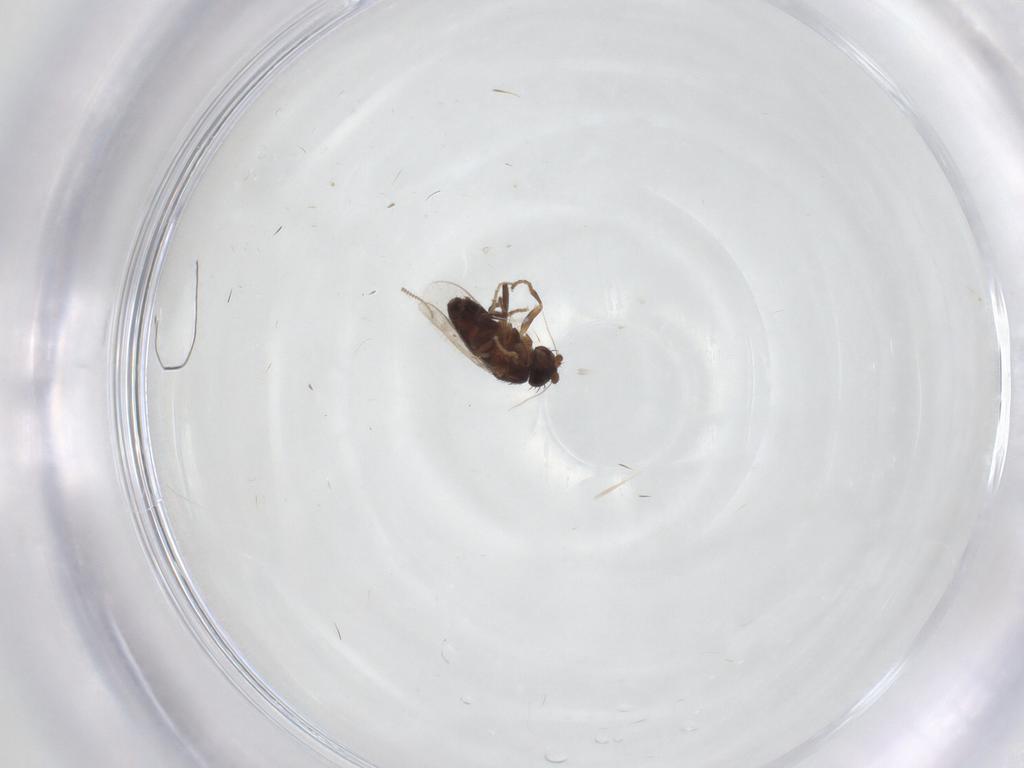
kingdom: Animalia
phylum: Arthropoda
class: Insecta
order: Diptera
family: Sphaeroceridae
